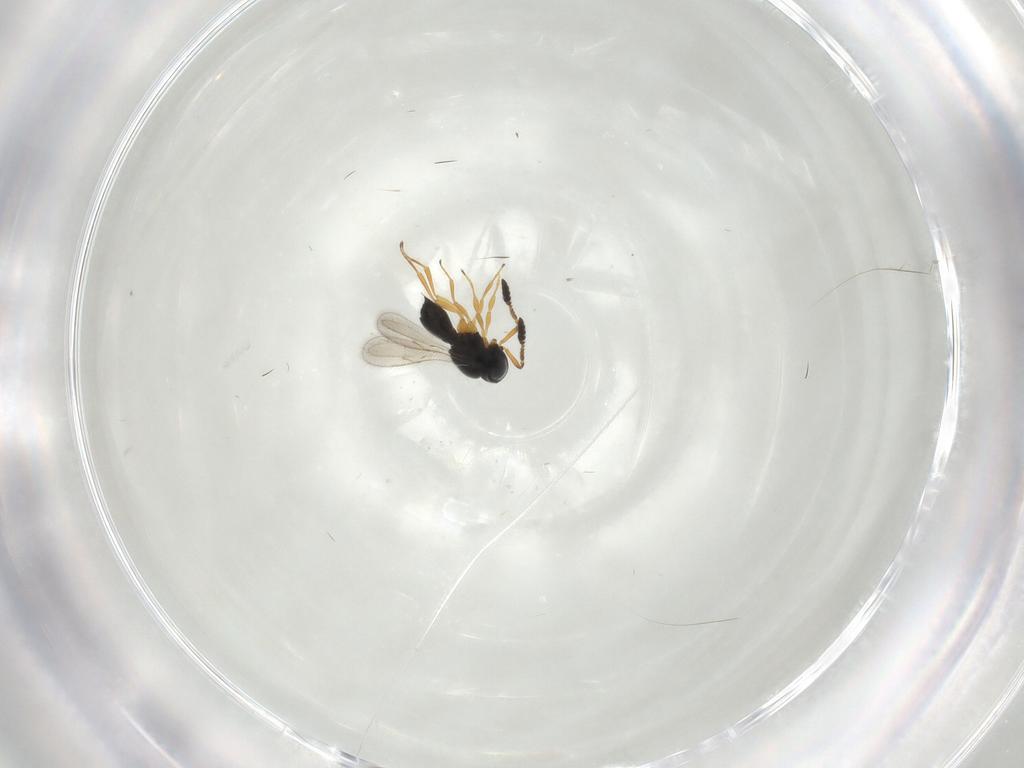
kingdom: Animalia
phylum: Arthropoda
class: Insecta
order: Hymenoptera
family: Scelionidae
